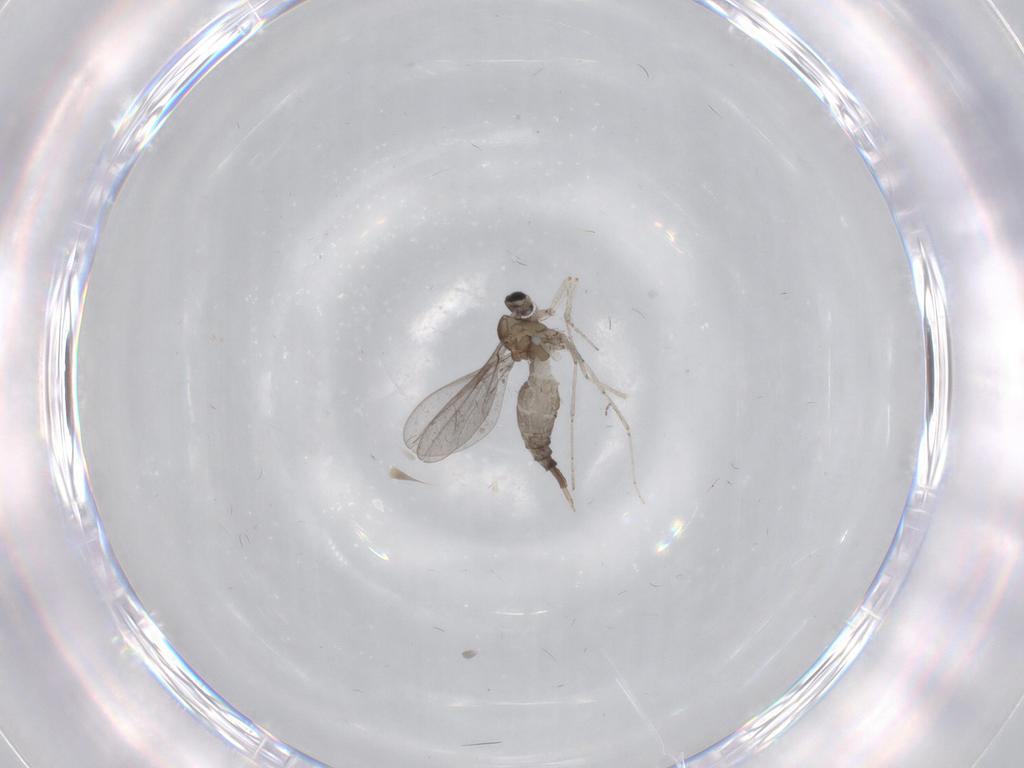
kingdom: Animalia
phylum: Arthropoda
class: Insecta
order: Diptera
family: Cecidomyiidae
